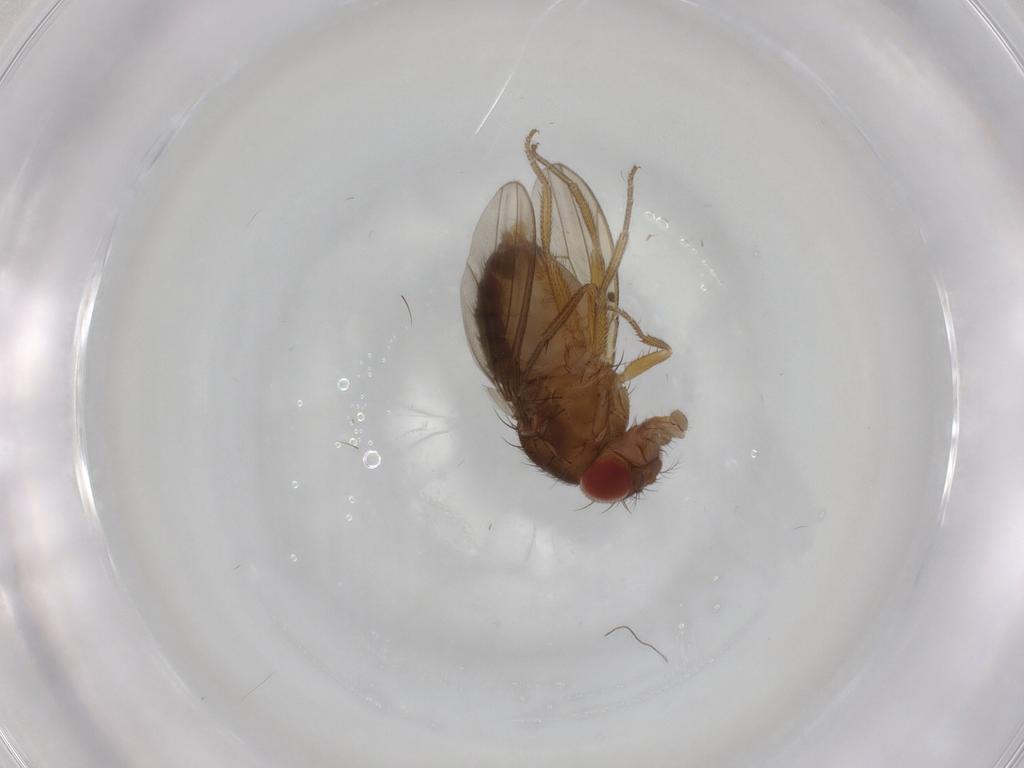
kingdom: Animalia
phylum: Arthropoda
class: Insecta
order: Diptera
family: Drosophilidae
